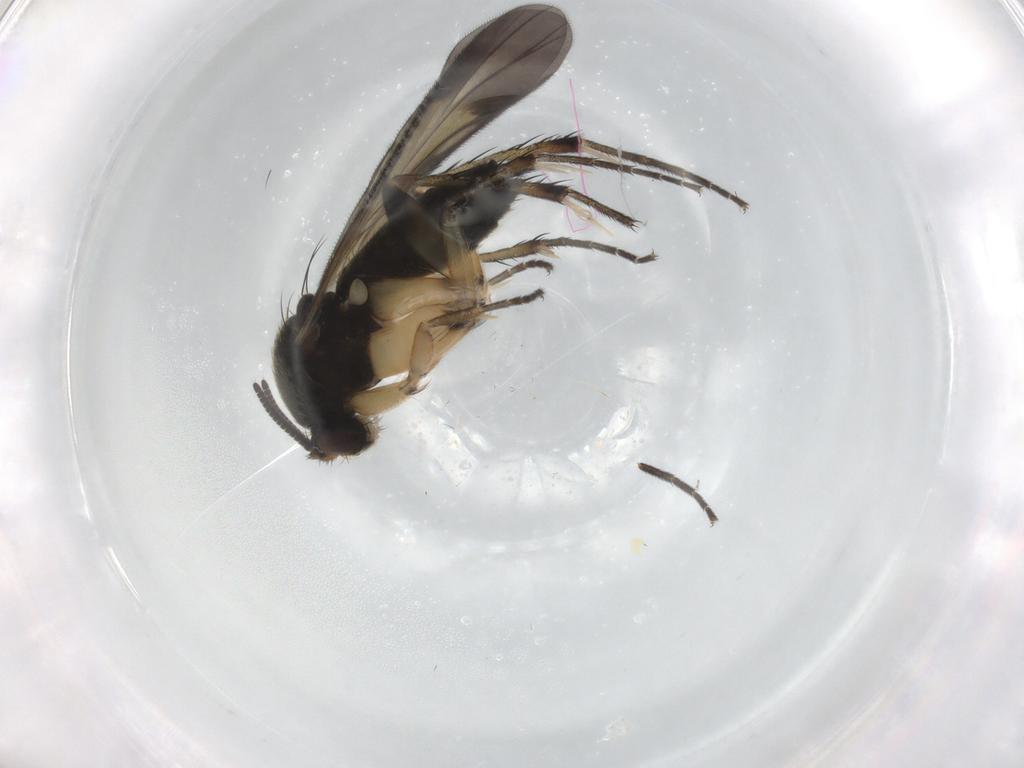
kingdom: Animalia
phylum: Arthropoda
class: Insecta
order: Diptera
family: Mycetophilidae
